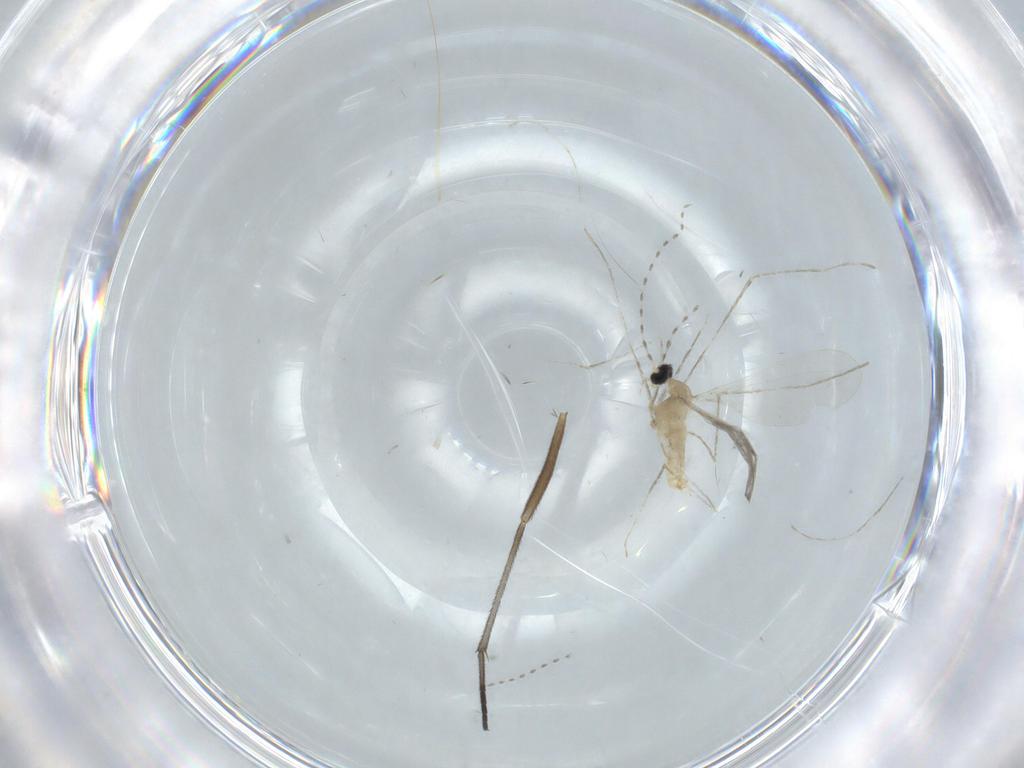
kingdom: Animalia
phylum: Arthropoda
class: Insecta
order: Diptera
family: Cecidomyiidae
